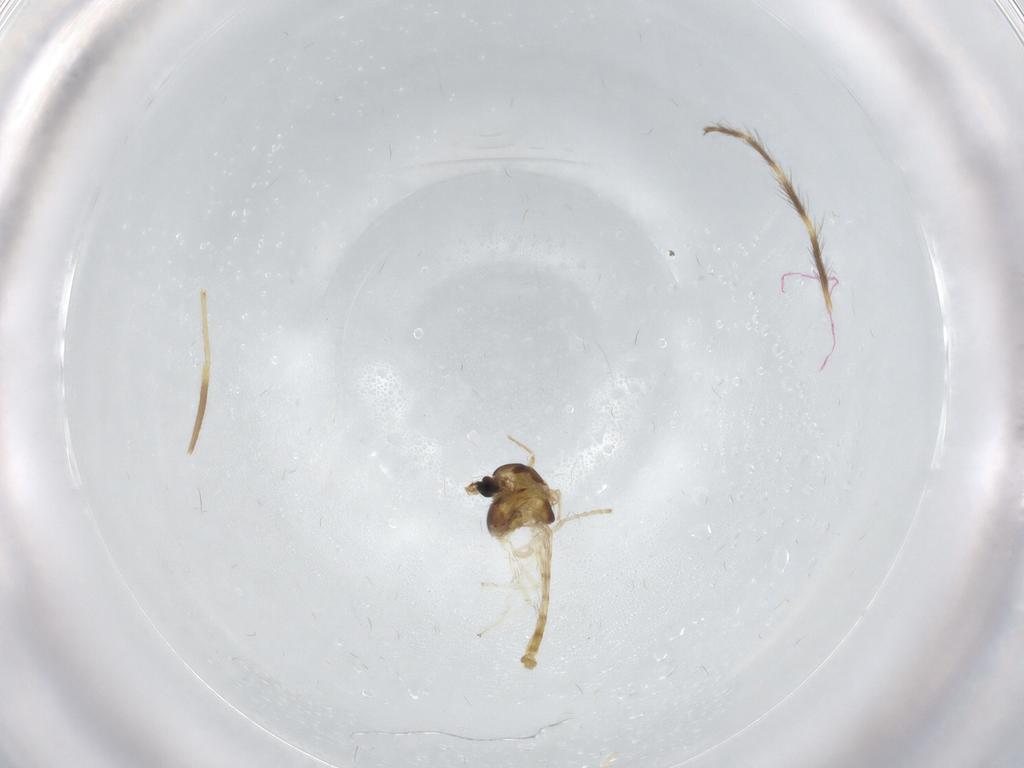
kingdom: Animalia
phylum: Arthropoda
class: Insecta
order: Diptera
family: Chironomidae
